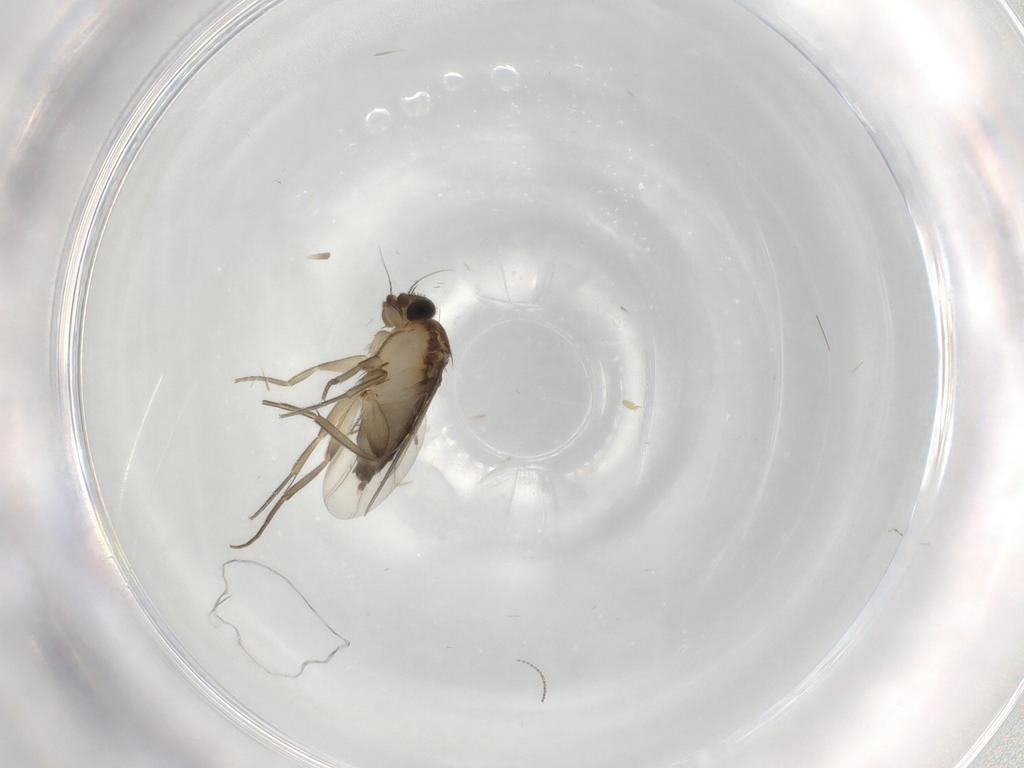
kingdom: Animalia
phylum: Arthropoda
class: Insecta
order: Diptera
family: Phoridae
